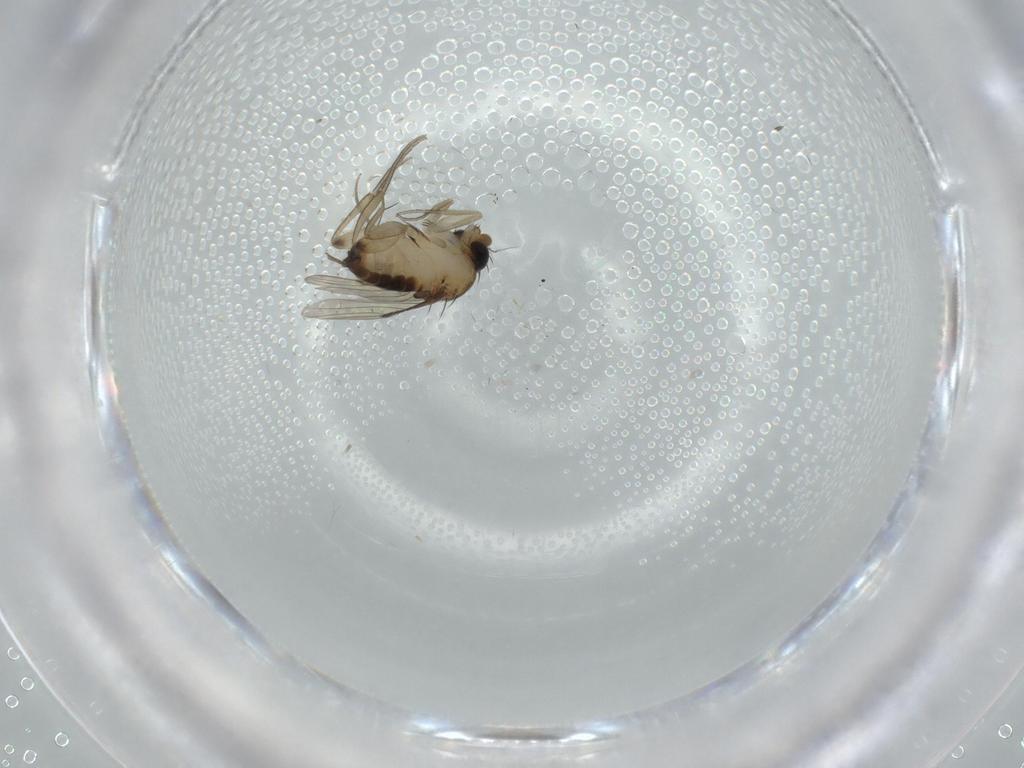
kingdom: Animalia
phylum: Arthropoda
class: Insecta
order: Diptera
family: Phoridae
